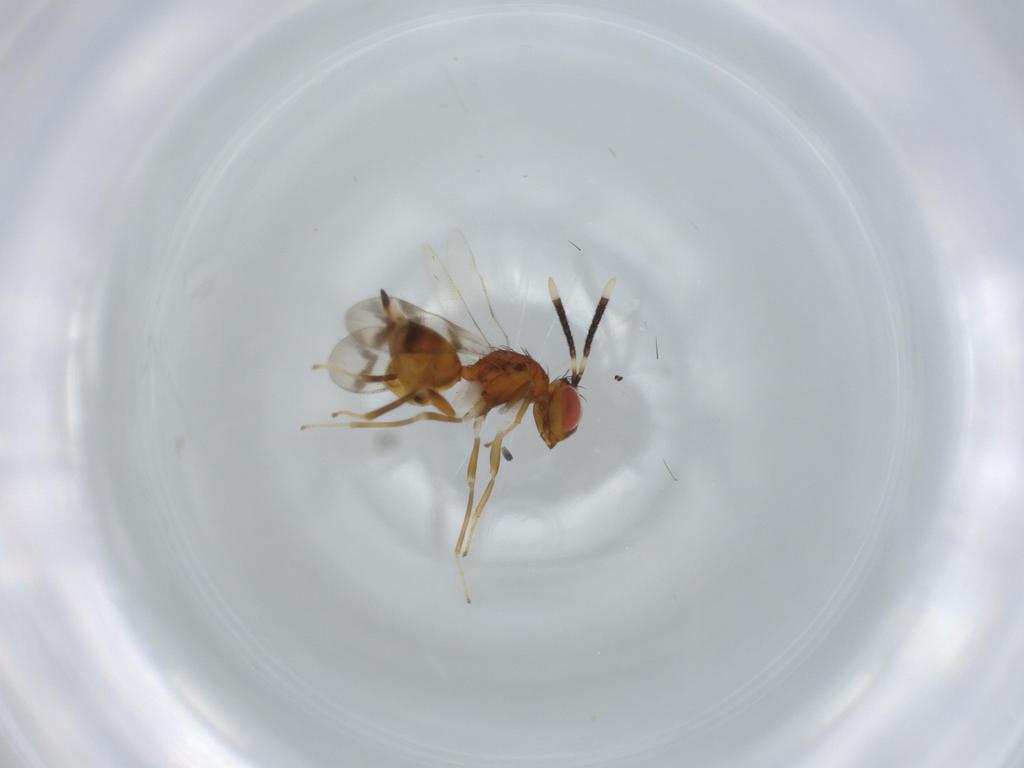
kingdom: Animalia
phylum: Arthropoda
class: Insecta
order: Hymenoptera
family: Diparidae
